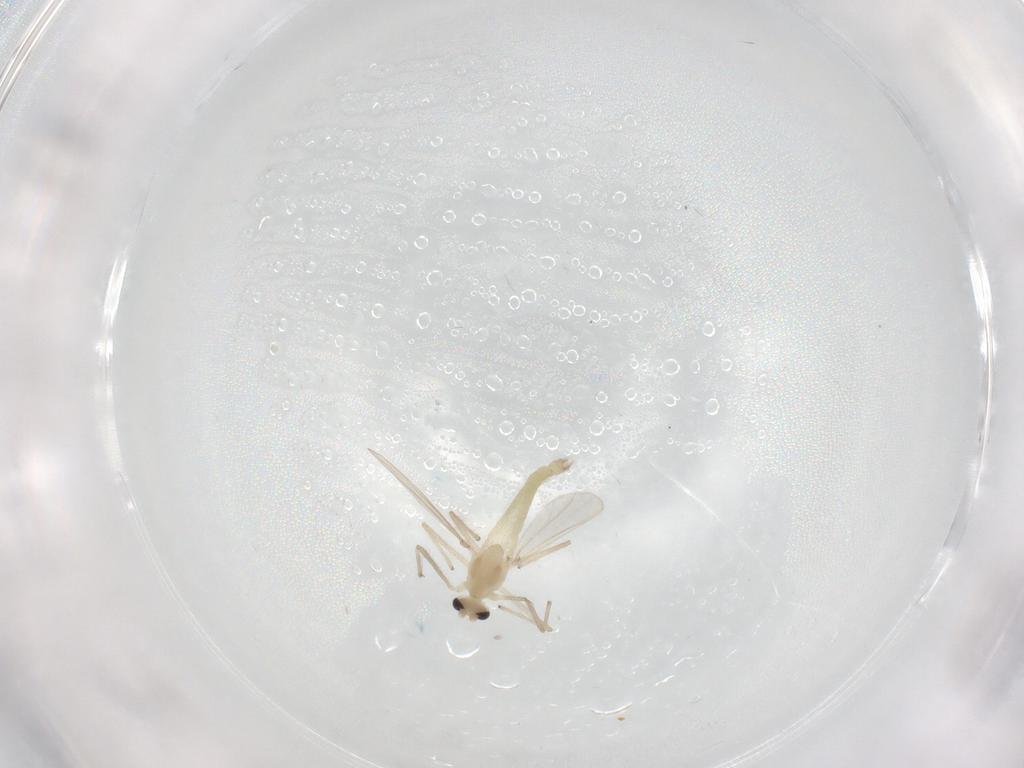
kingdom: Animalia
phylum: Arthropoda
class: Insecta
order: Diptera
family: Chironomidae
